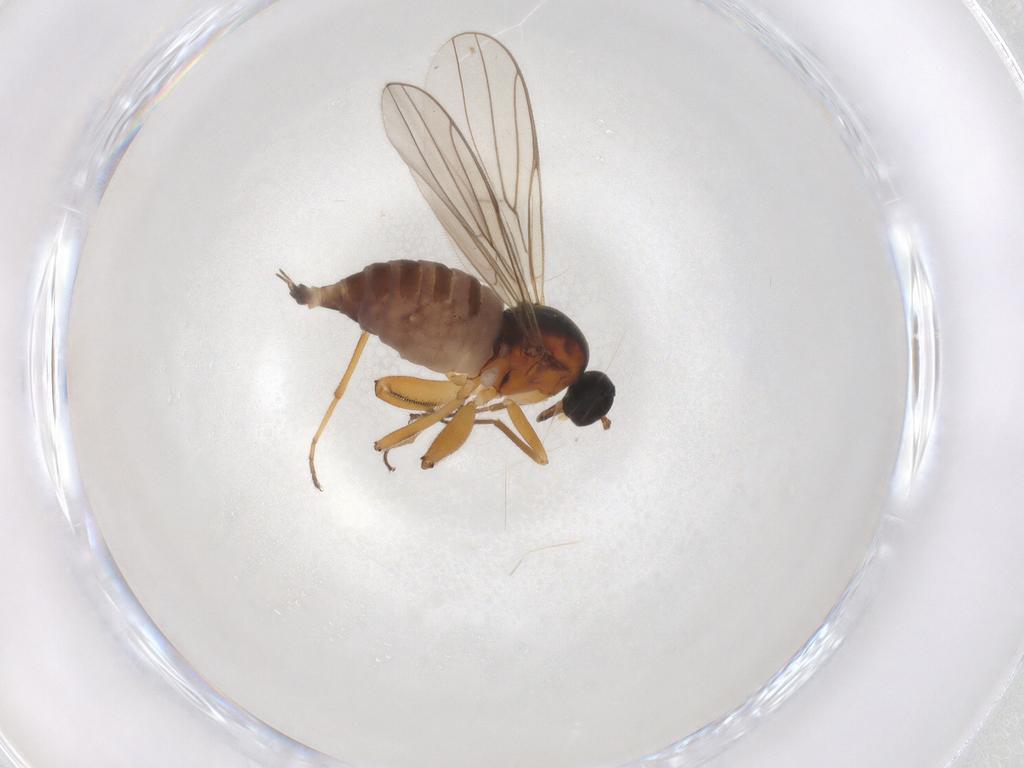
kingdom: Animalia
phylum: Arthropoda
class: Insecta
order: Diptera
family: Hybotidae
